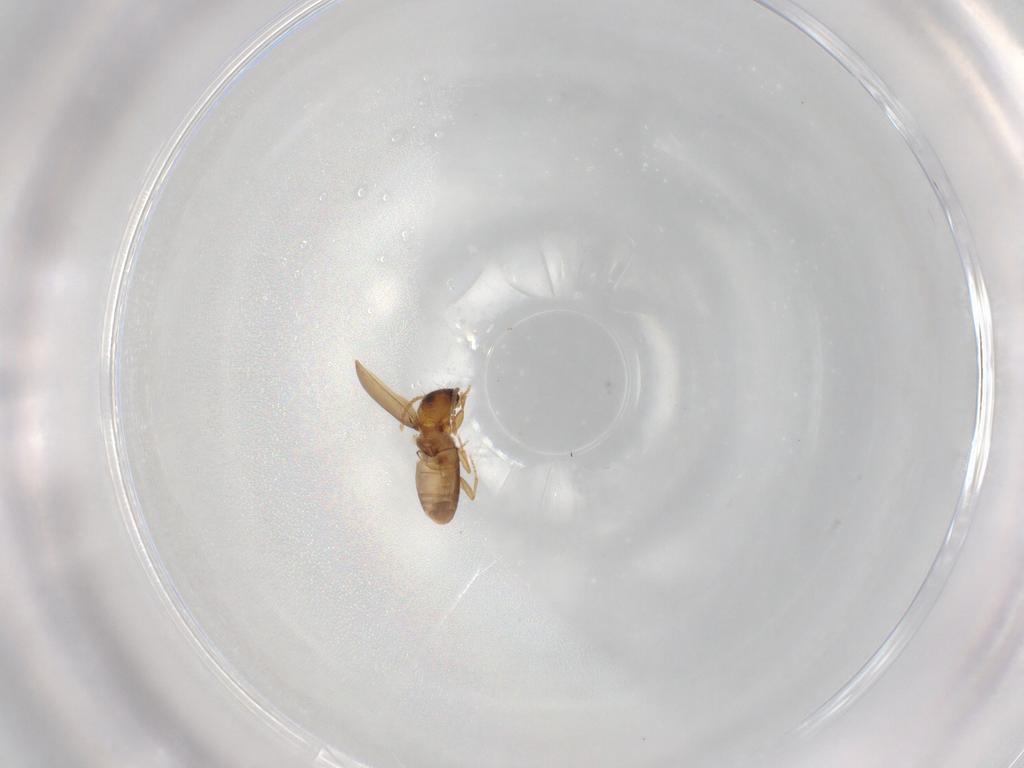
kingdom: Animalia
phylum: Arthropoda
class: Insecta
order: Coleoptera
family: Carabidae
